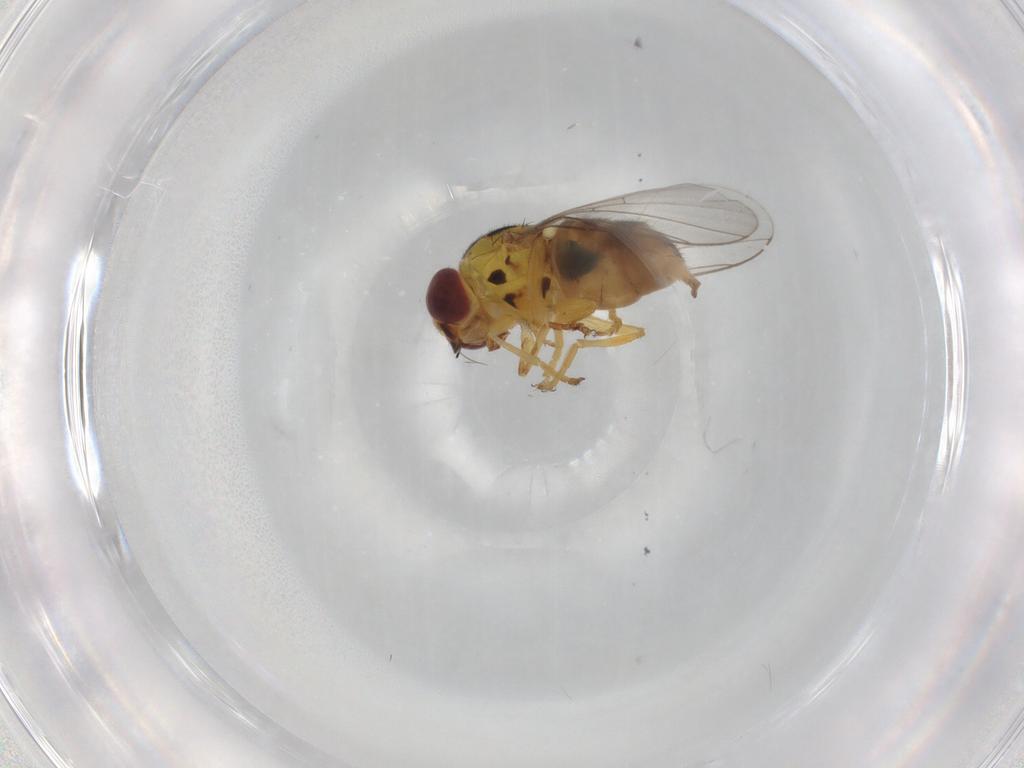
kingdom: Animalia
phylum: Arthropoda
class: Insecta
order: Diptera
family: Chloropidae
